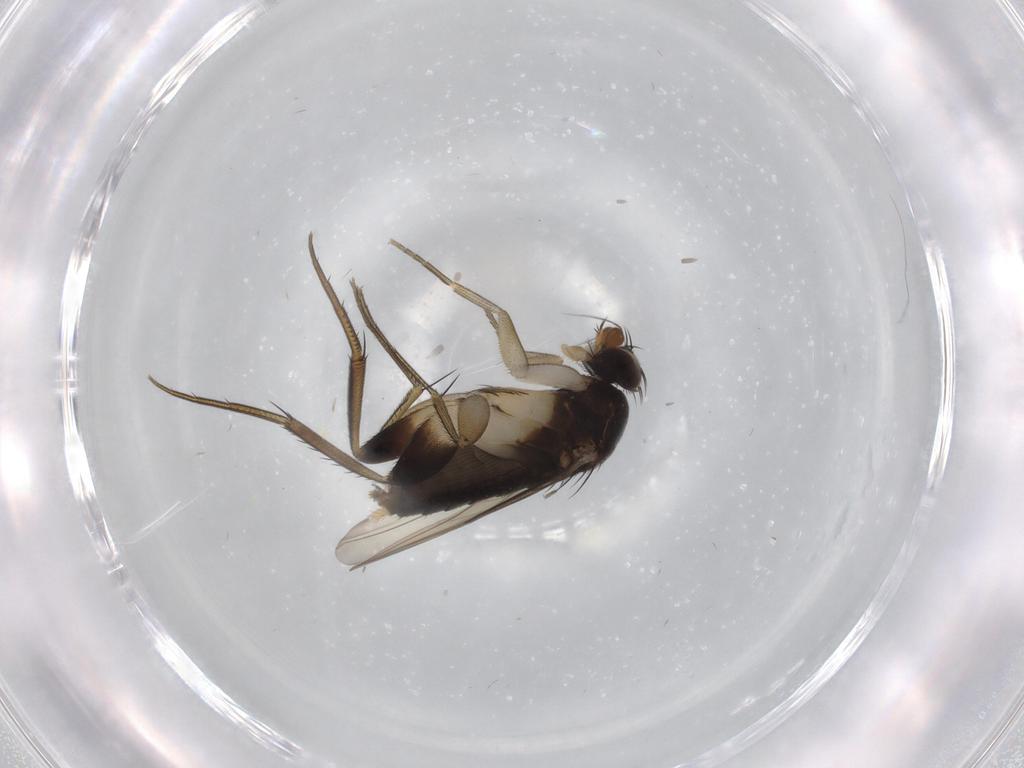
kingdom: Animalia
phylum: Arthropoda
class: Insecta
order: Diptera
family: Phoridae
